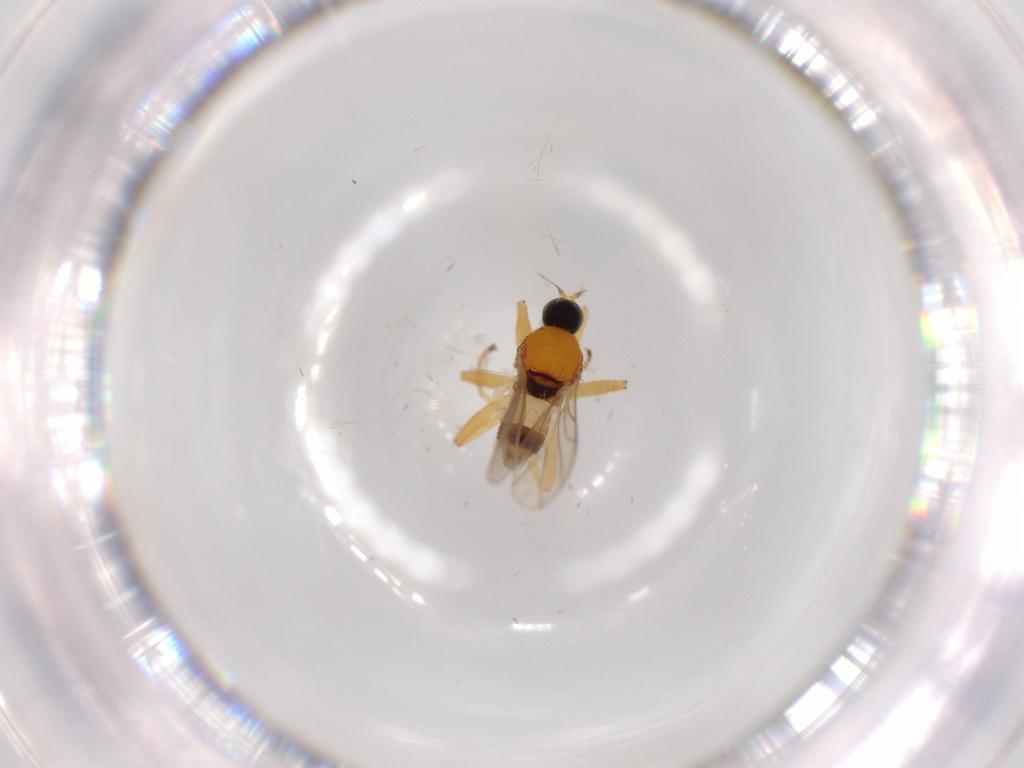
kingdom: Animalia
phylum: Arthropoda
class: Insecta
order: Diptera
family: Hybotidae
